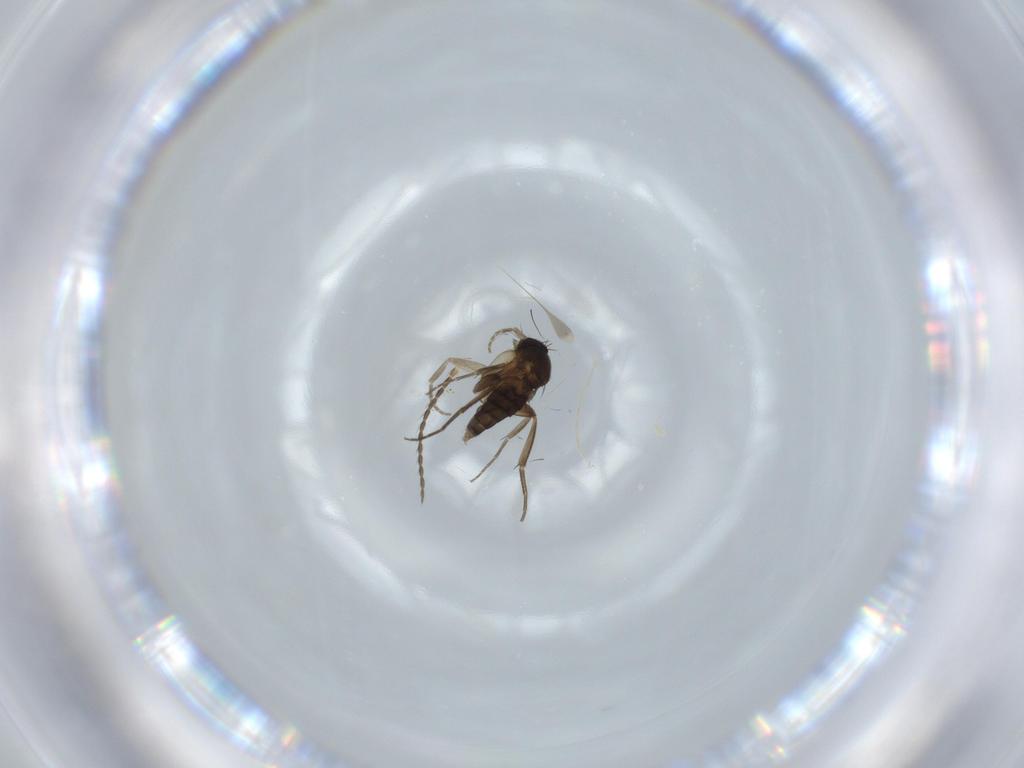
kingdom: Animalia
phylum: Arthropoda
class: Insecta
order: Diptera
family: Phoridae
